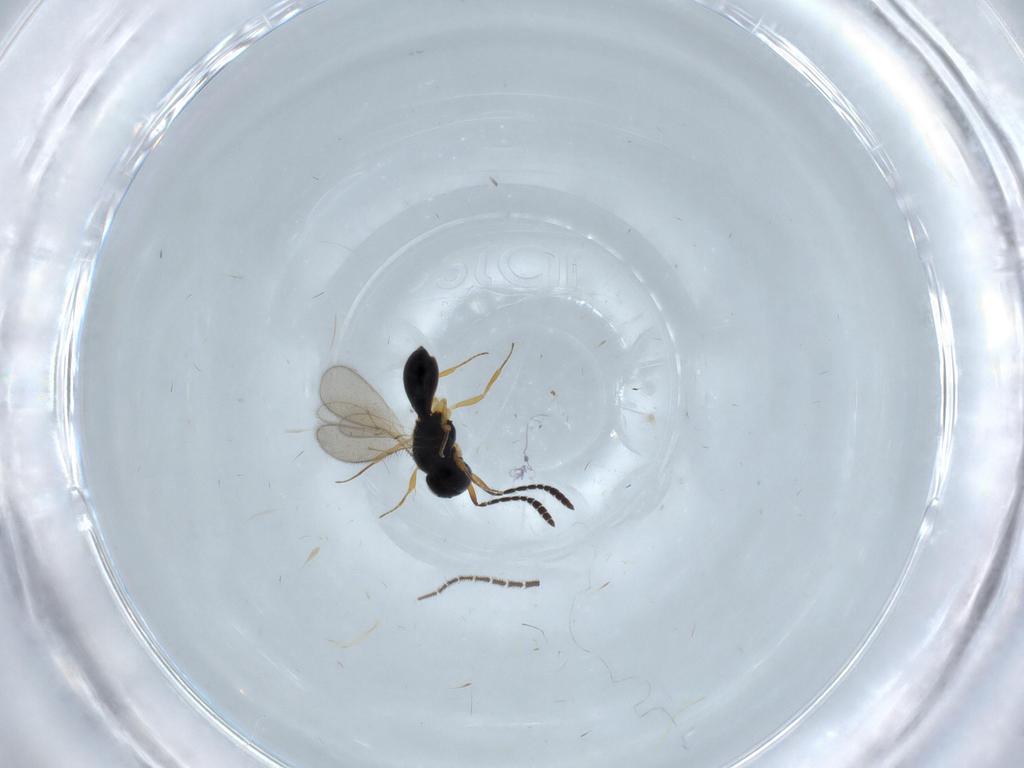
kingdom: Animalia
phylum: Arthropoda
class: Insecta
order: Hymenoptera
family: Scelionidae
